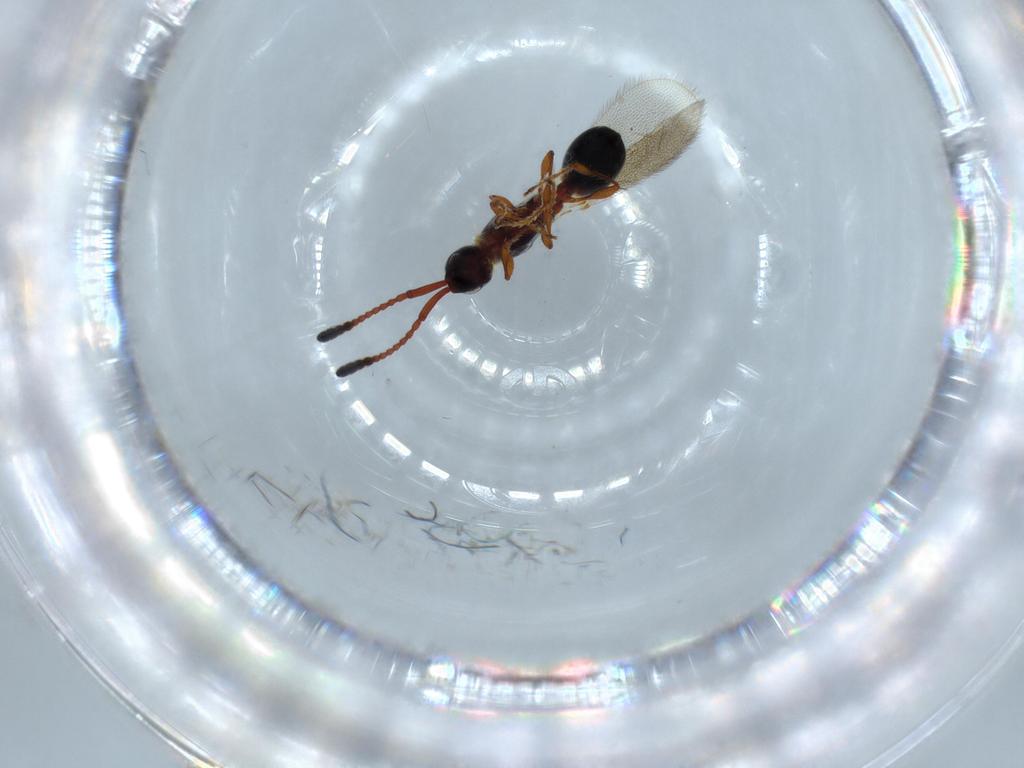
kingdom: Animalia
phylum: Arthropoda
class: Insecta
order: Hymenoptera
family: Diapriidae
